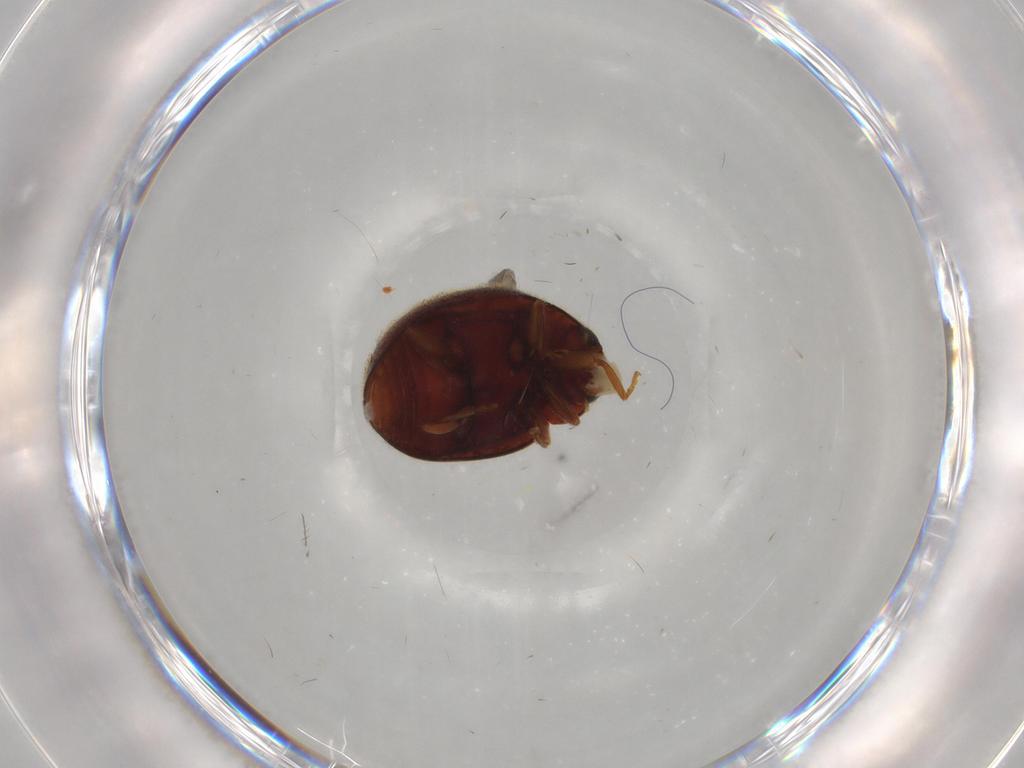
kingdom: Animalia
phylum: Arthropoda
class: Insecta
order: Coleoptera
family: Coccinellidae
